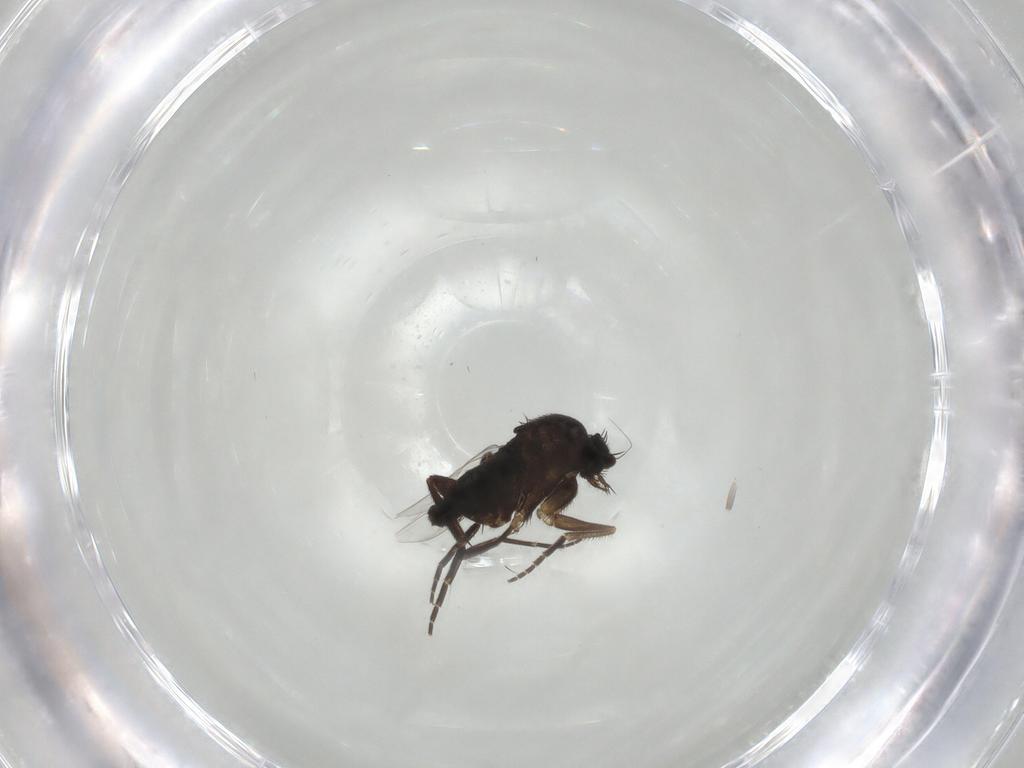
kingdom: Animalia
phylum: Arthropoda
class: Insecta
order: Diptera
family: Phoridae
